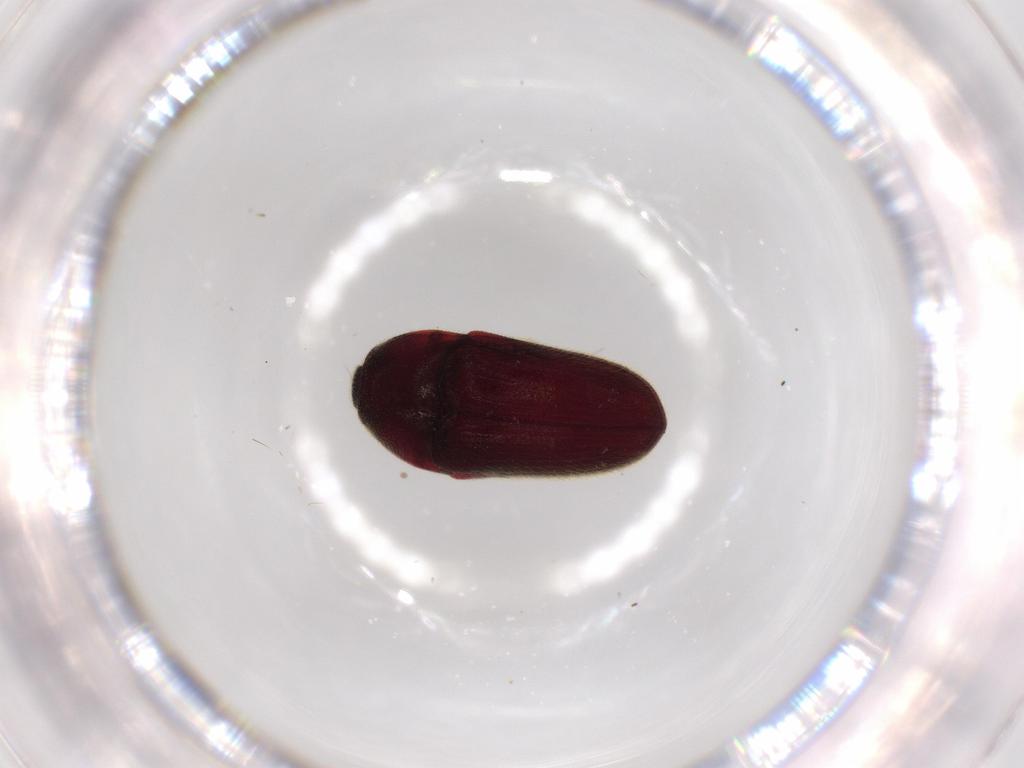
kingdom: Animalia
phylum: Arthropoda
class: Insecta
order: Coleoptera
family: Throscidae
